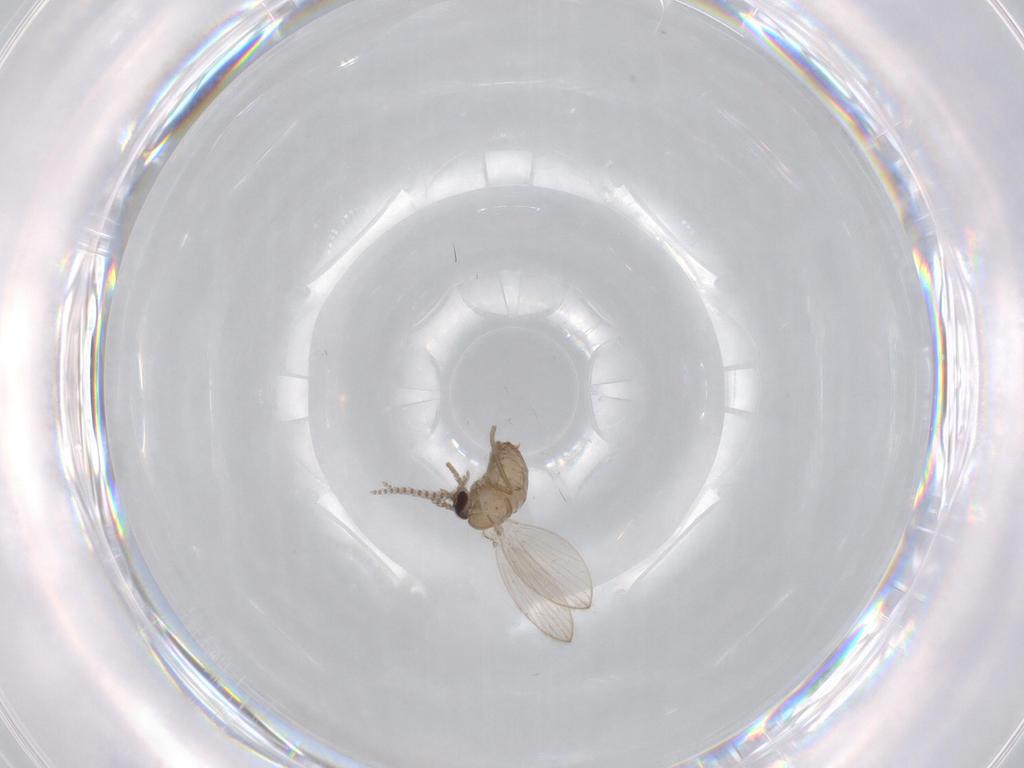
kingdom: Animalia
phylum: Arthropoda
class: Insecta
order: Diptera
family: Psychodidae
